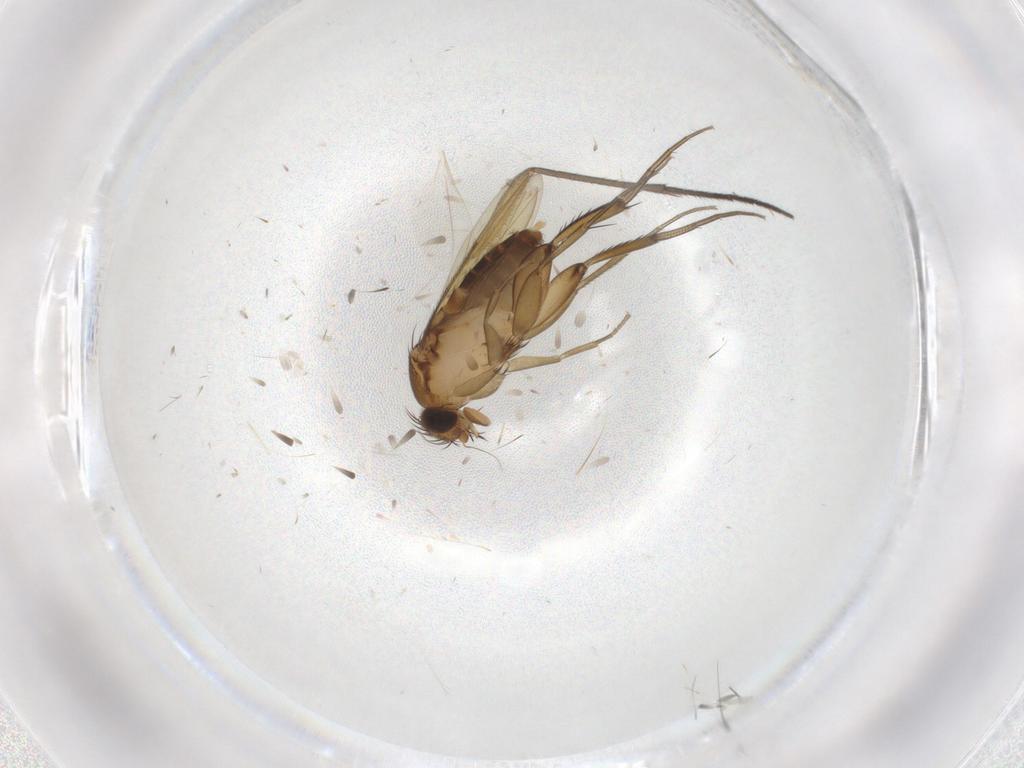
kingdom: Animalia
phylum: Arthropoda
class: Insecta
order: Diptera
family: Phoridae
